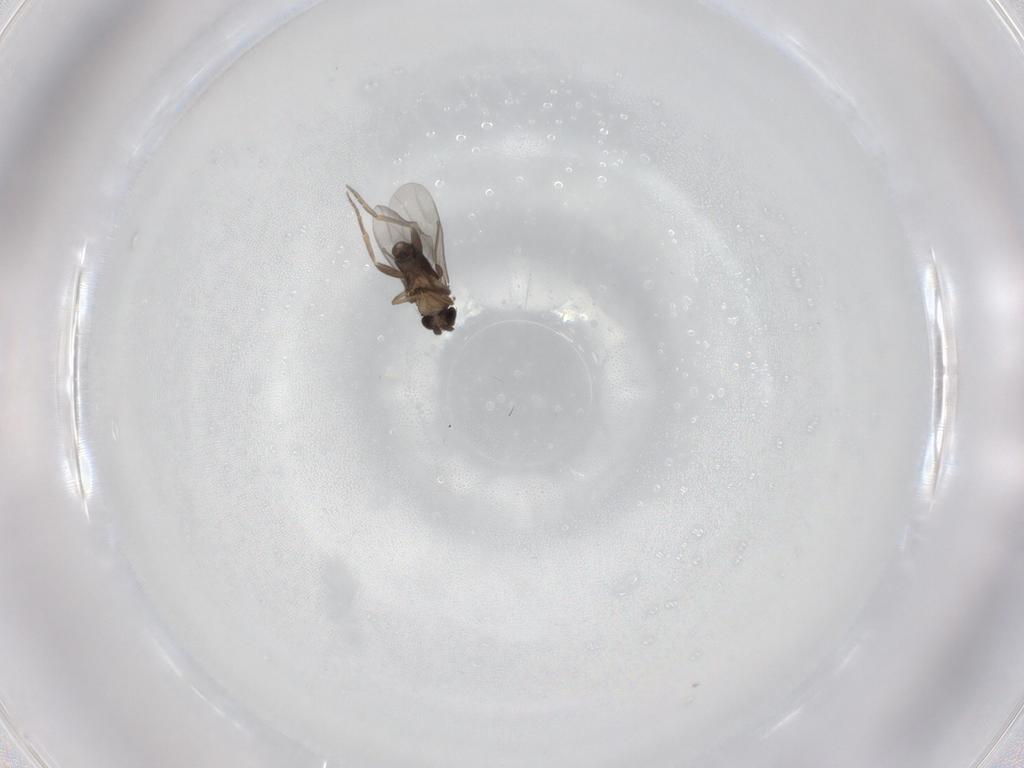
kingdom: Animalia
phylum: Arthropoda
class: Insecta
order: Diptera
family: Chironomidae
